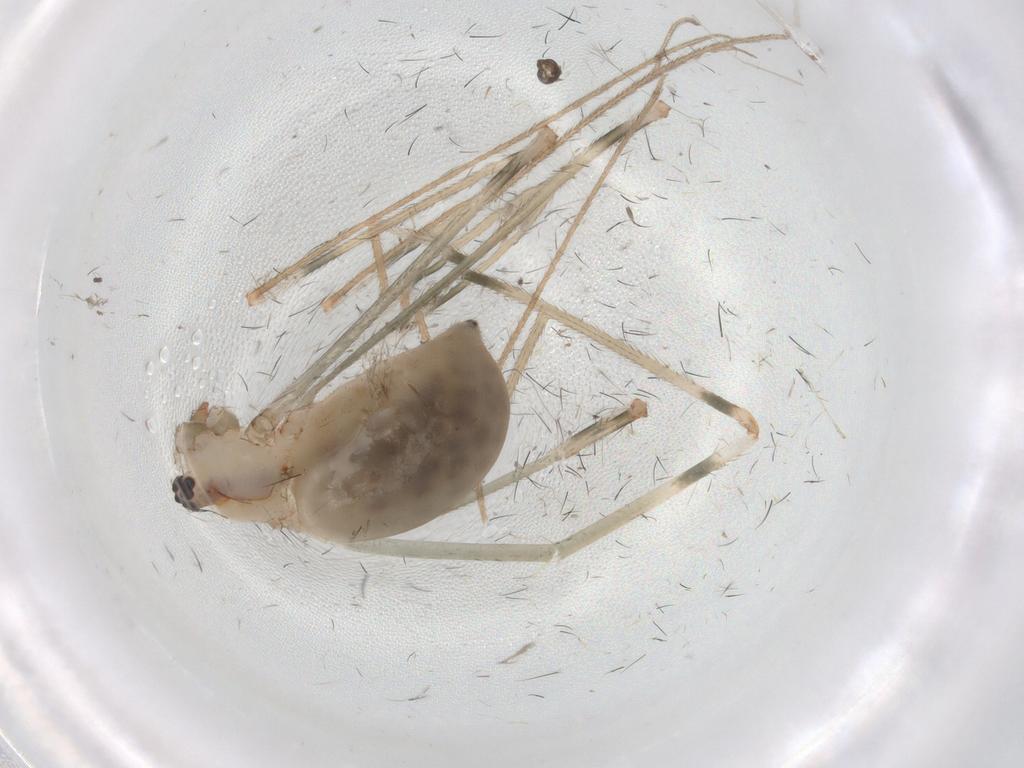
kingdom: Animalia
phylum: Arthropoda
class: Arachnida
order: Araneae
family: Pholcidae
